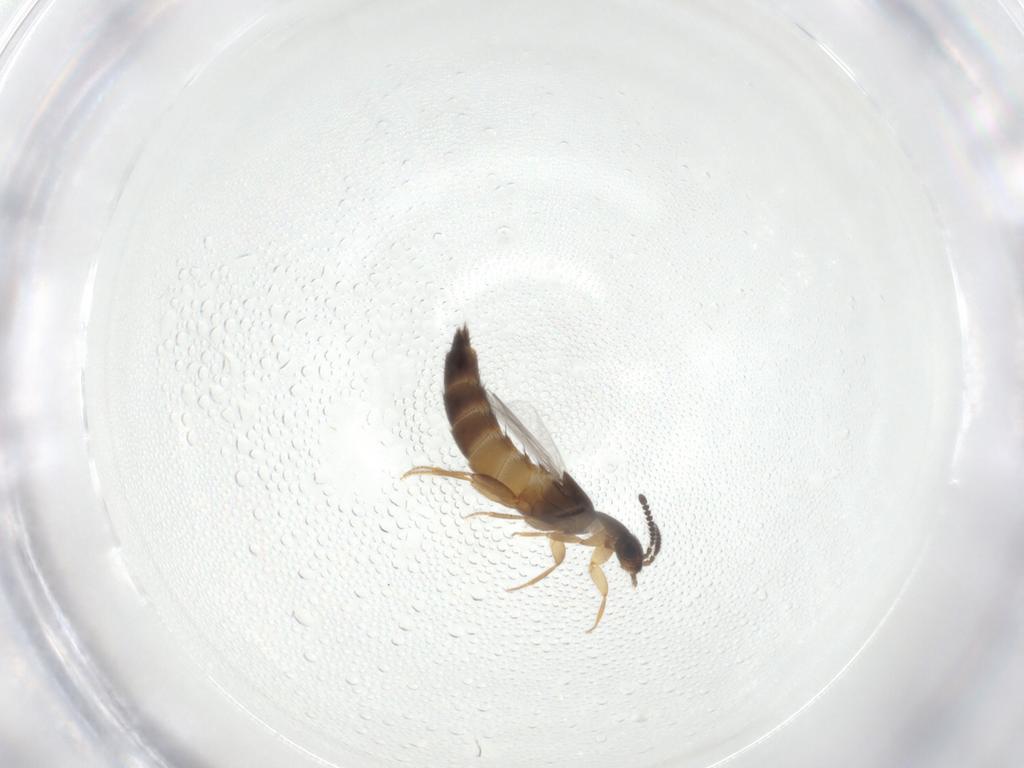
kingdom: Animalia
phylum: Arthropoda
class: Insecta
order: Coleoptera
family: Staphylinidae
